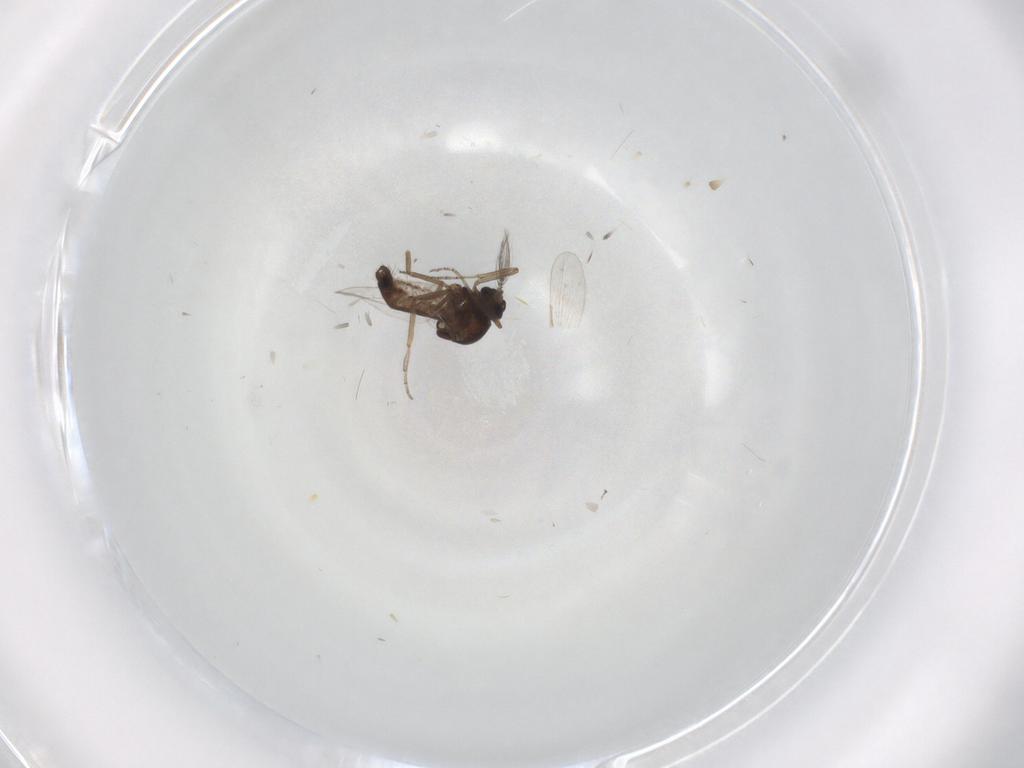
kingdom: Animalia
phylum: Arthropoda
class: Insecta
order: Diptera
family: Ceratopogonidae
